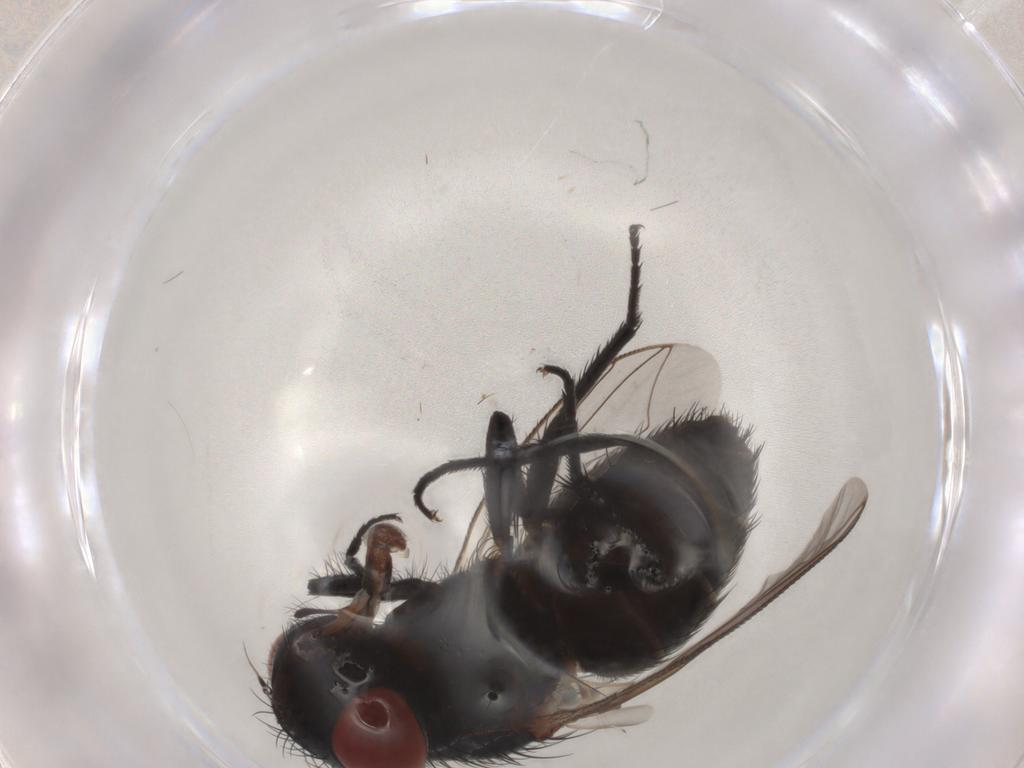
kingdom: Animalia
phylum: Arthropoda
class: Insecta
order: Diptera
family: Sarcophagidae
